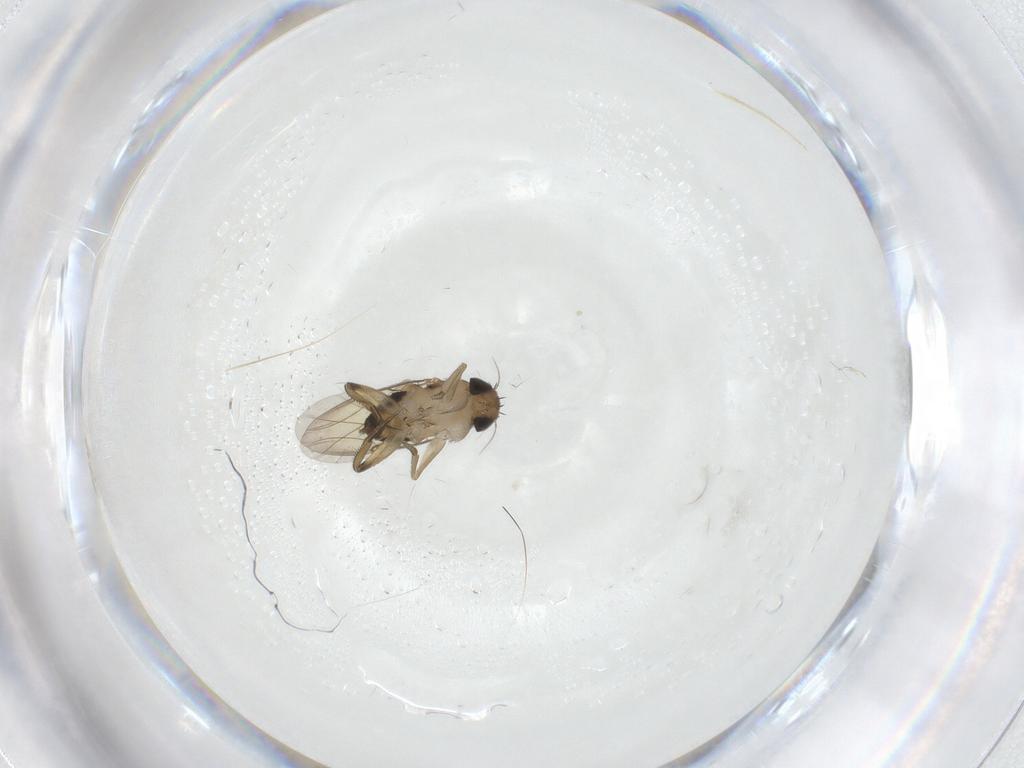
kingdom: Animalia
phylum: Arthropoda
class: Insecta
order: Diptera
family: Phoridae
